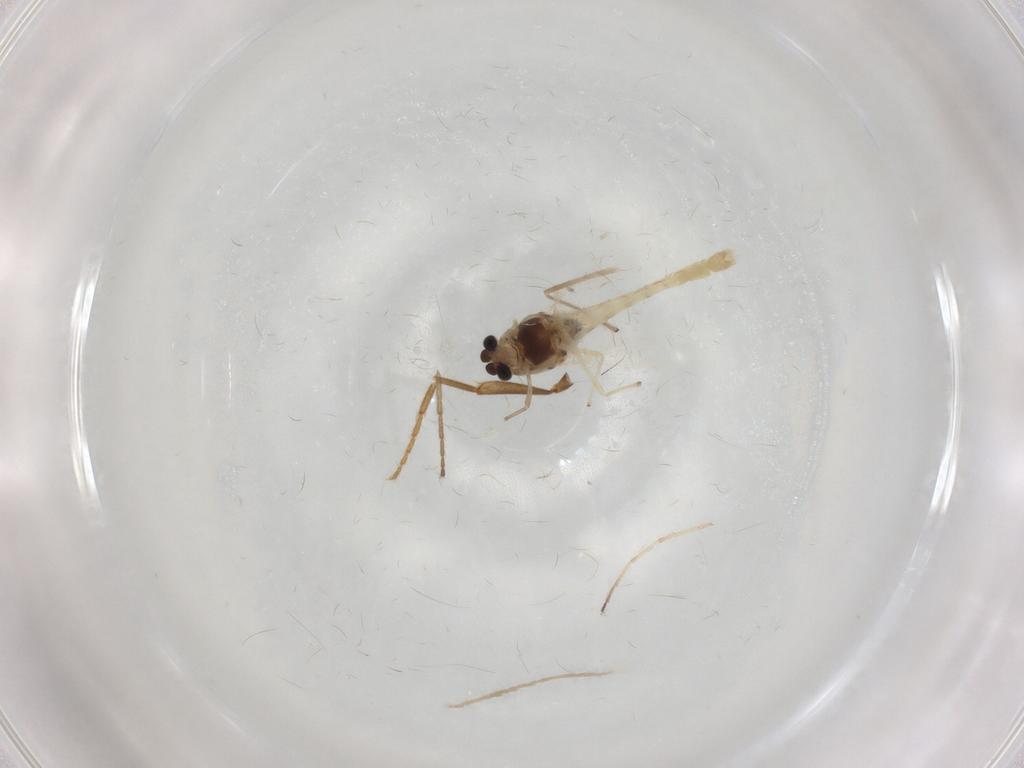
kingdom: Animalia
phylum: Arthropoda
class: Insecta
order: Diptera
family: Chironomidae
